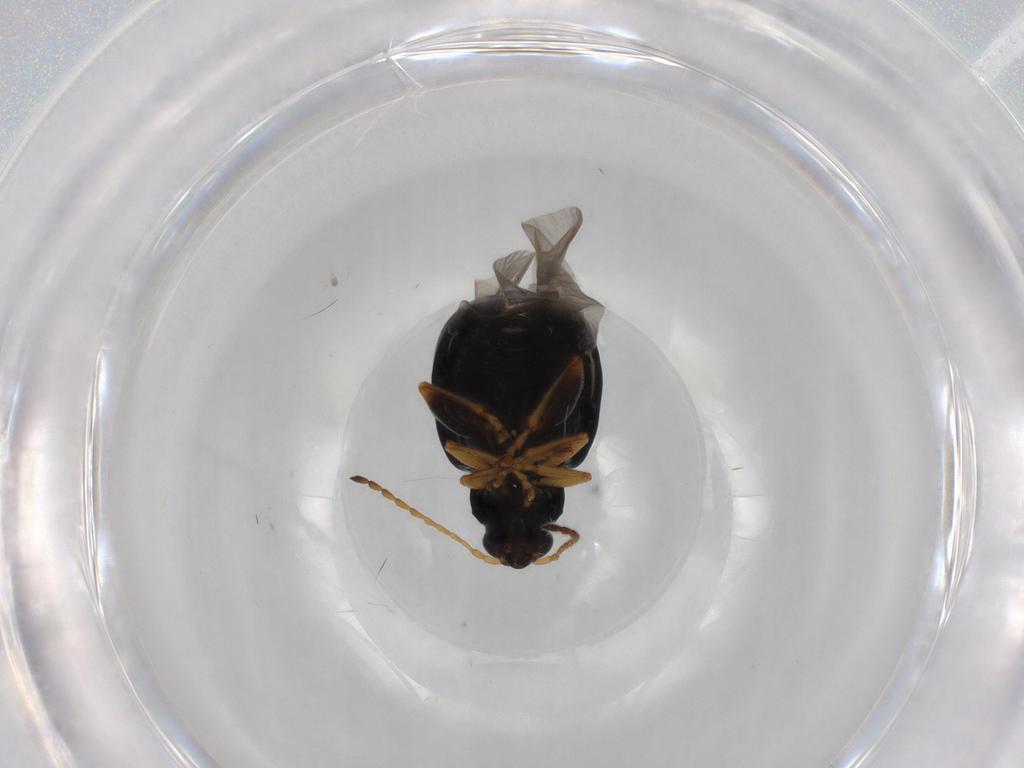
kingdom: Animalia
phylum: Arthropoda
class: Insecta
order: Coleoptera
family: Chrysomelidae
